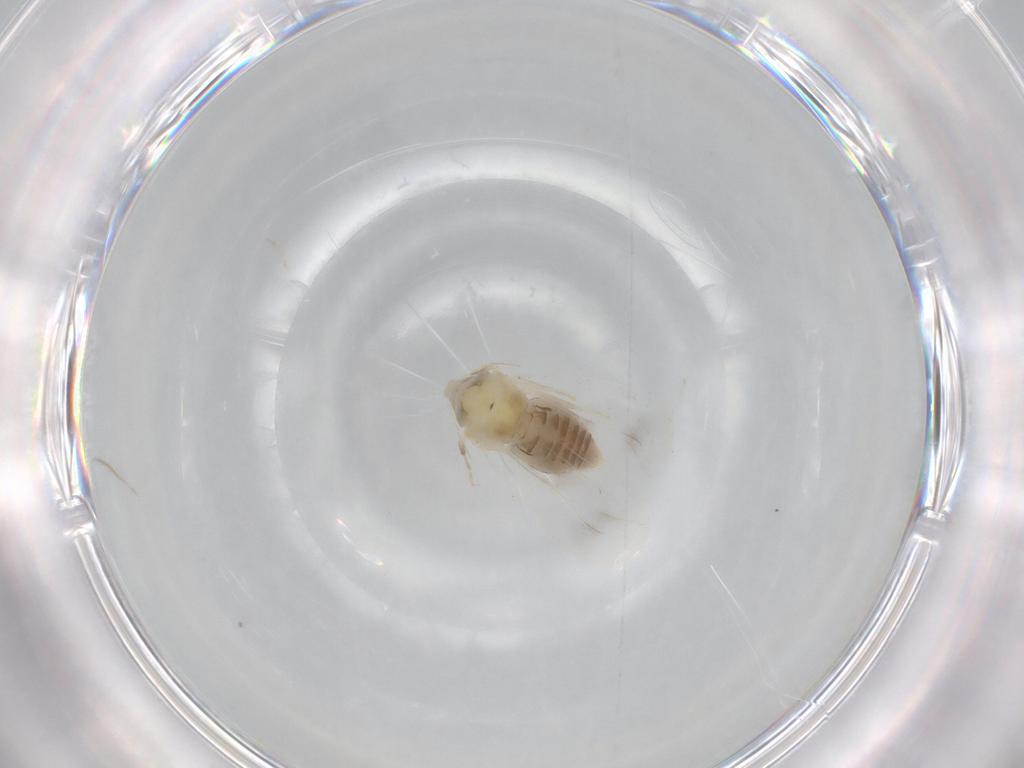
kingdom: Animalia
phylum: Arthropoda
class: Insecta
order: Hemiptera
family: Aleyrodidae
